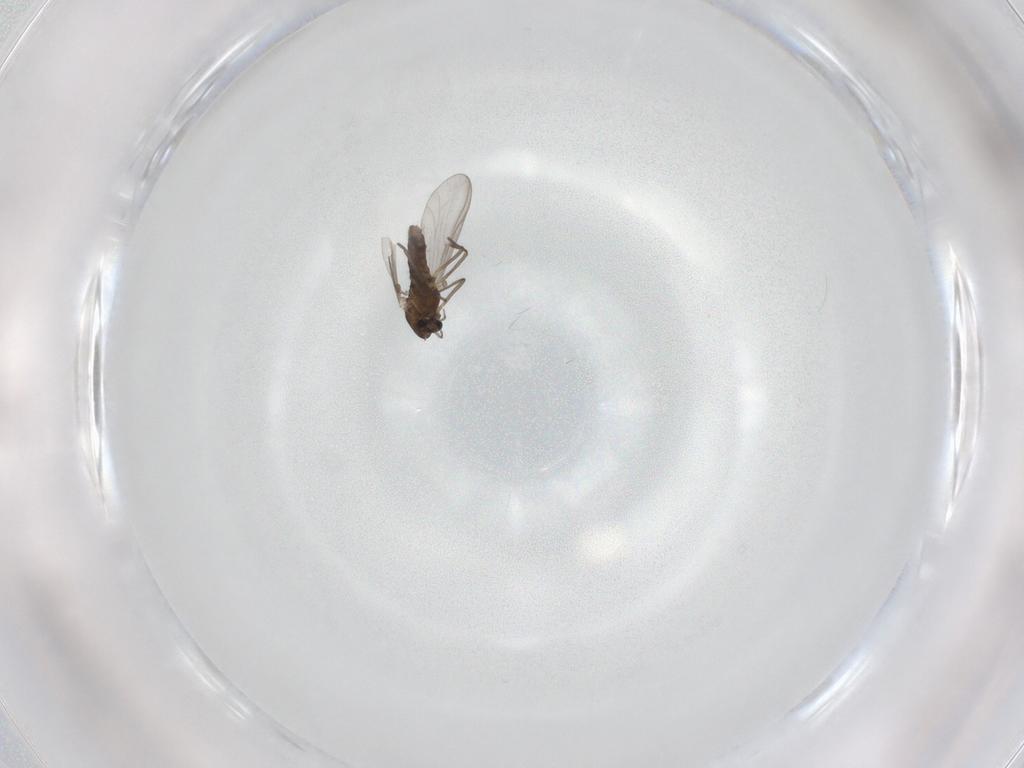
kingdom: Animalia
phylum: Arthropoda
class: Insecta
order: Diptera
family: Chironomidae
